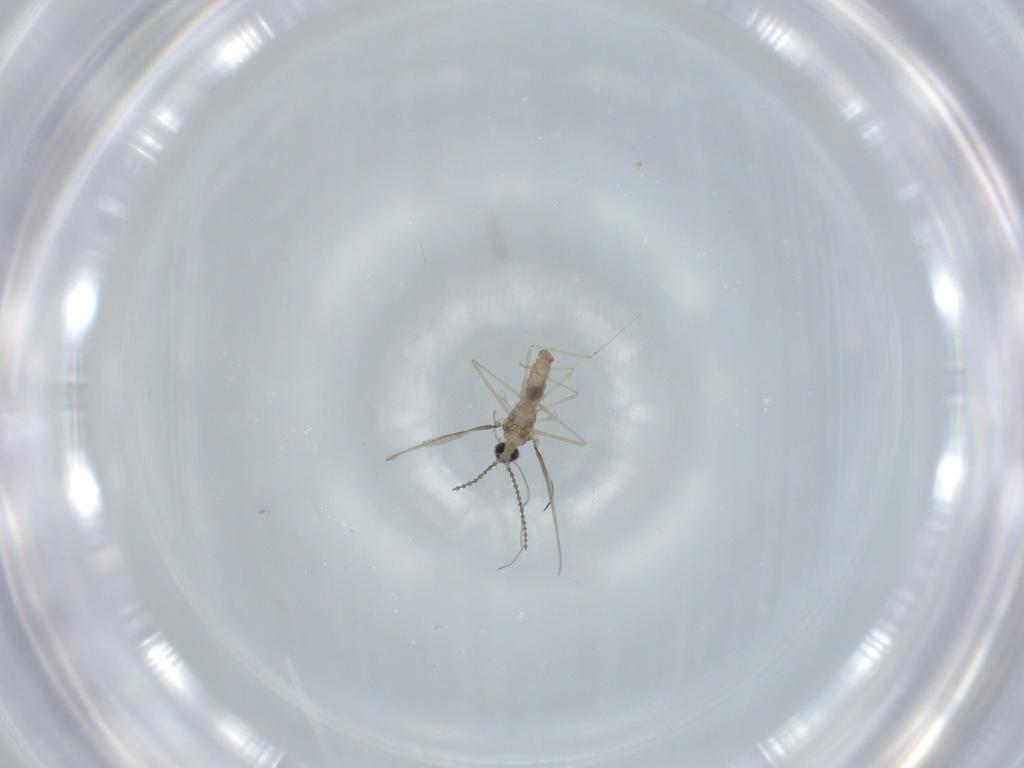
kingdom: Animalia
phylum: Arthropoda
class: Insecta
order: Diptera
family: Cecidomyiidae
